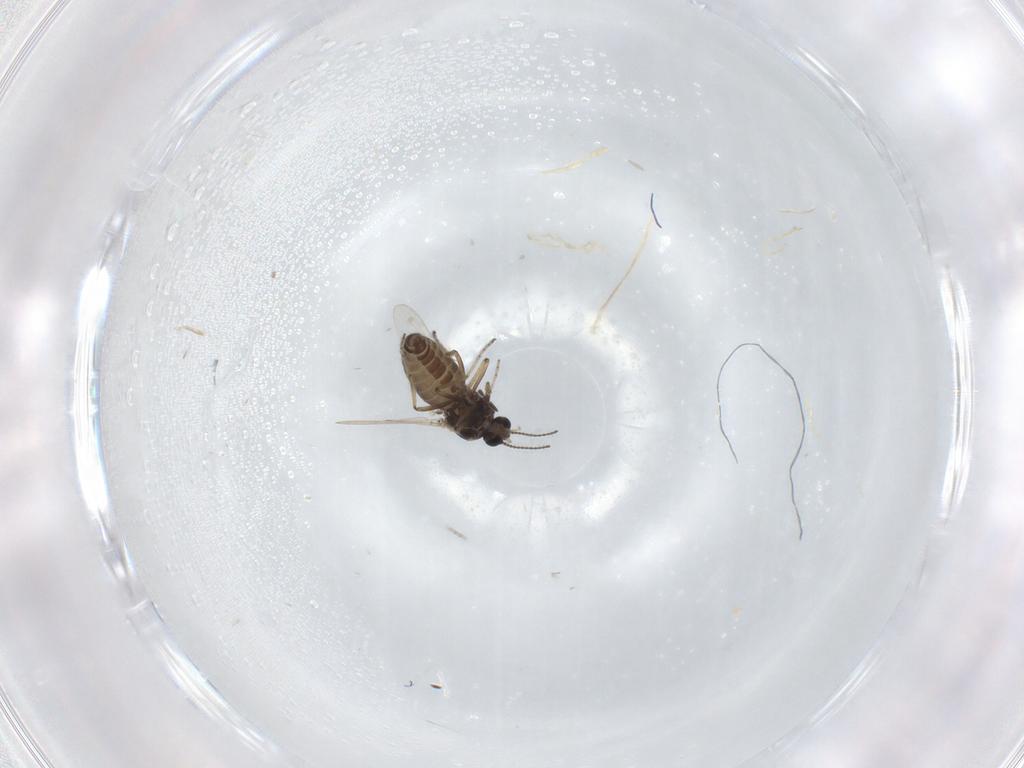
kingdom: Animalia
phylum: Arthropoda
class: Insecta
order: Diptera
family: Ceratopogonidae
